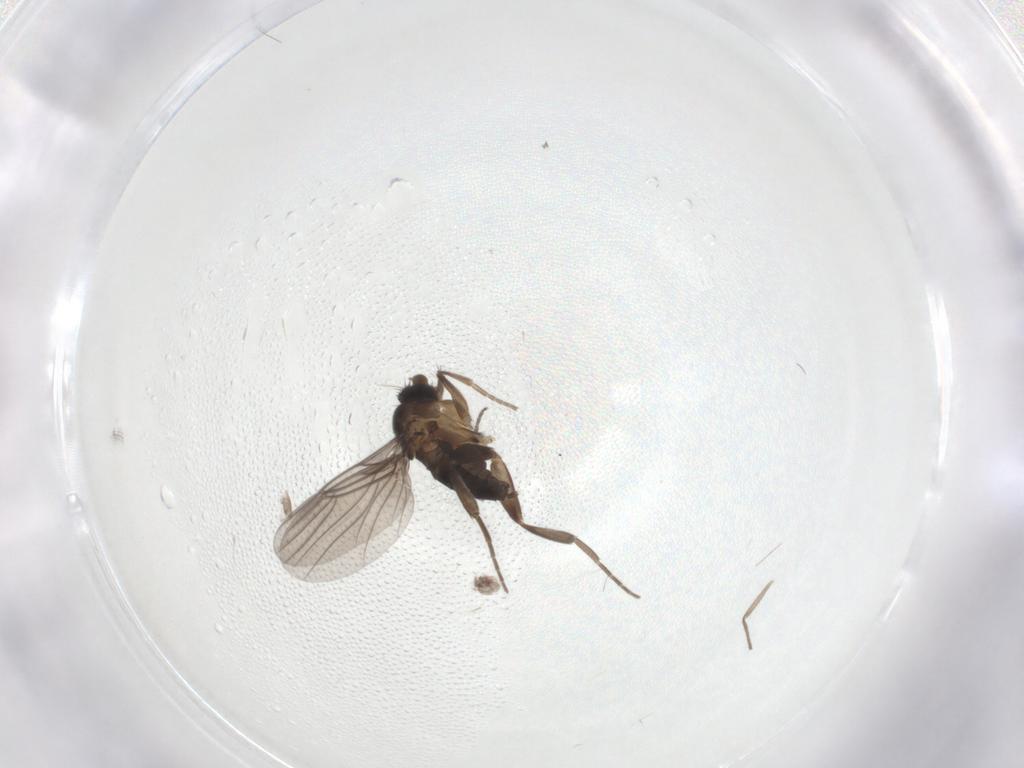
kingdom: Animalia
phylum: Arthropoda
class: Insecta
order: Diptera
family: Phoridae
